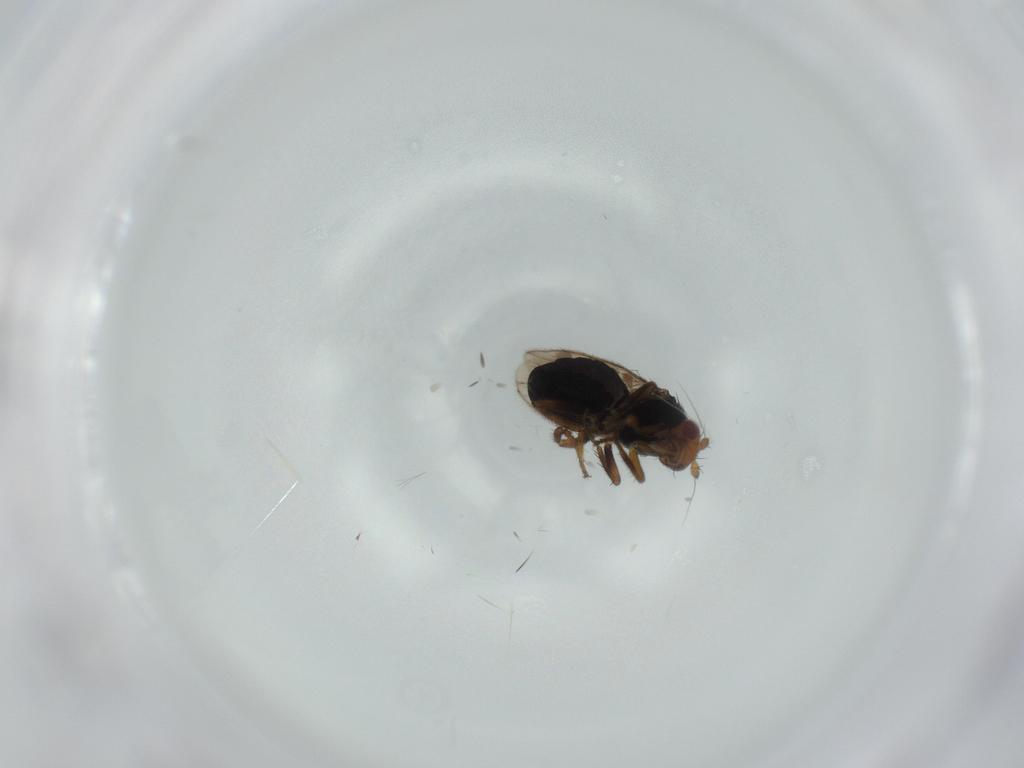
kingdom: Animalia
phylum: Arthropoda
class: Insecta
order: Diptera
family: Sphaeroceridae
